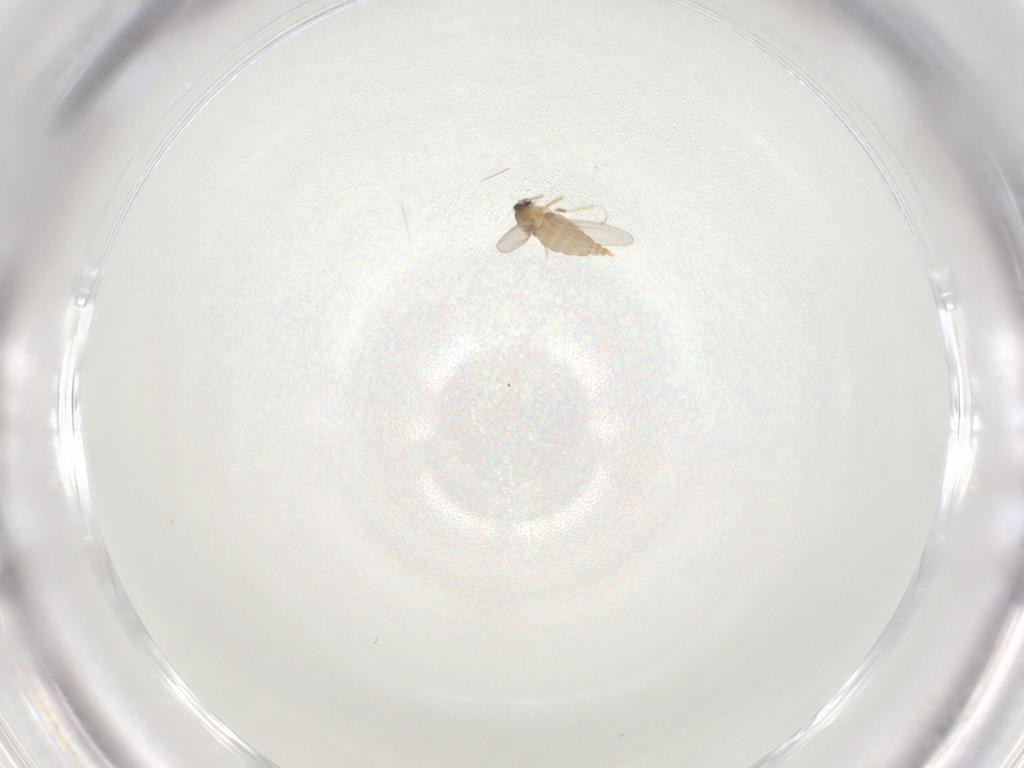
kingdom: Animalia
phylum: Arthropoda
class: Insecta
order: Diptera
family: Cecidomyiidae
